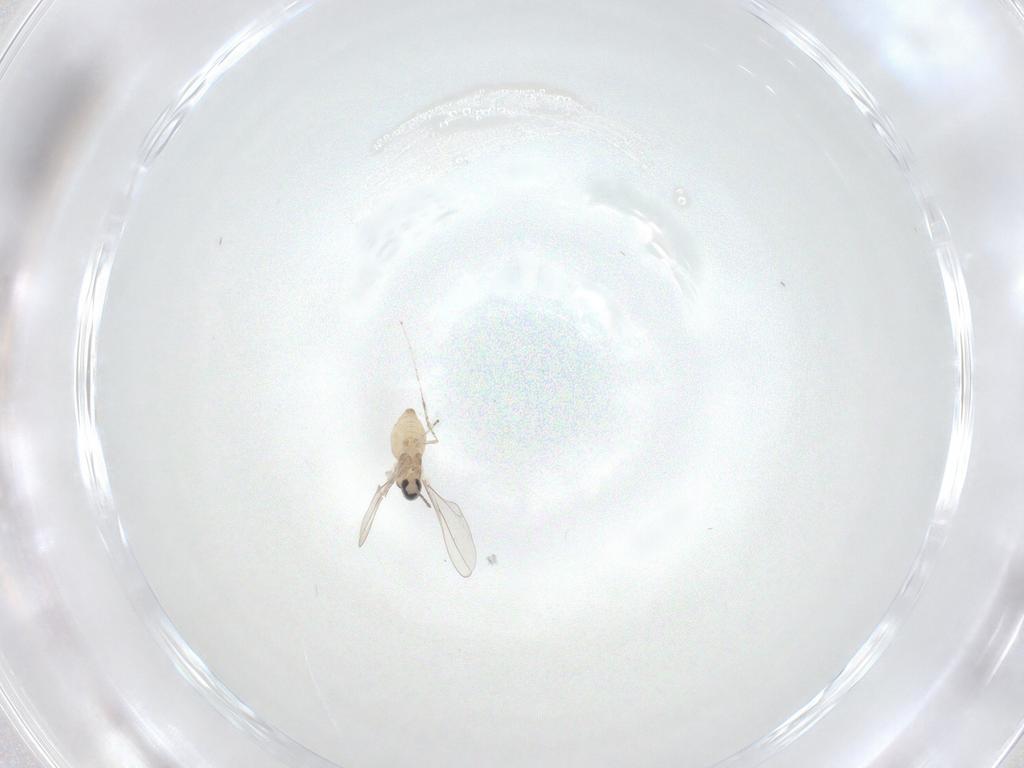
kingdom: Animalia
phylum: Arthropoda
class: Insecta
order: Diptera
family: Cecidomyiidae
